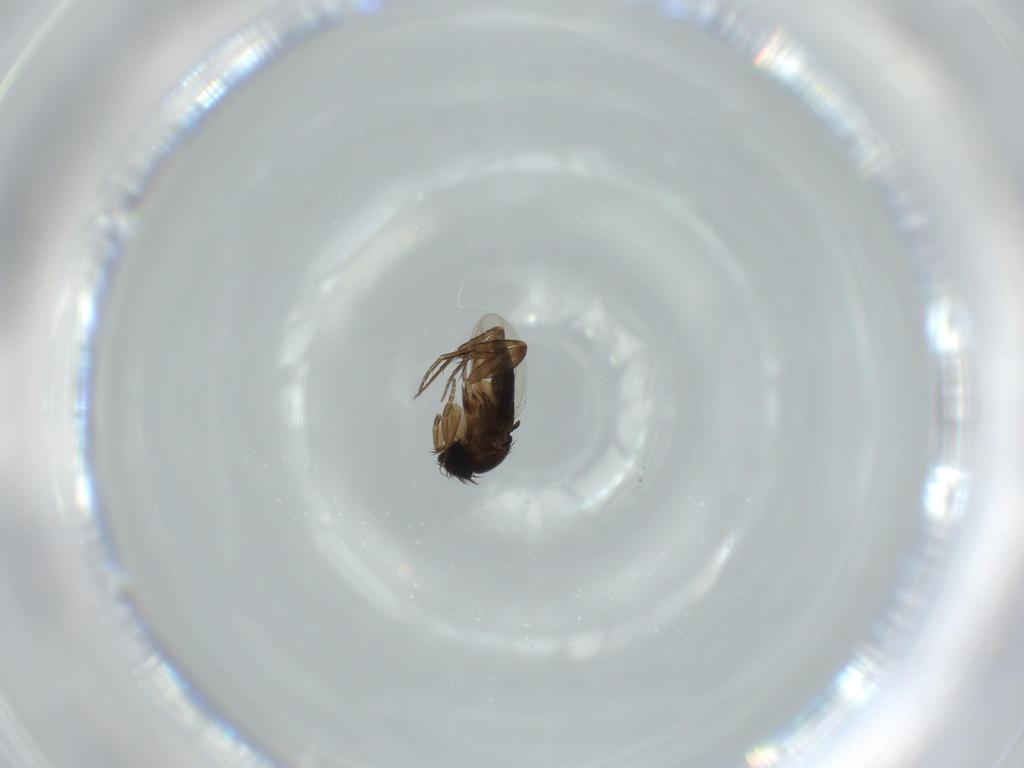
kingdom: Animalia
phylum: Arthropoda
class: Insecta
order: Diptera
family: Phoridae
